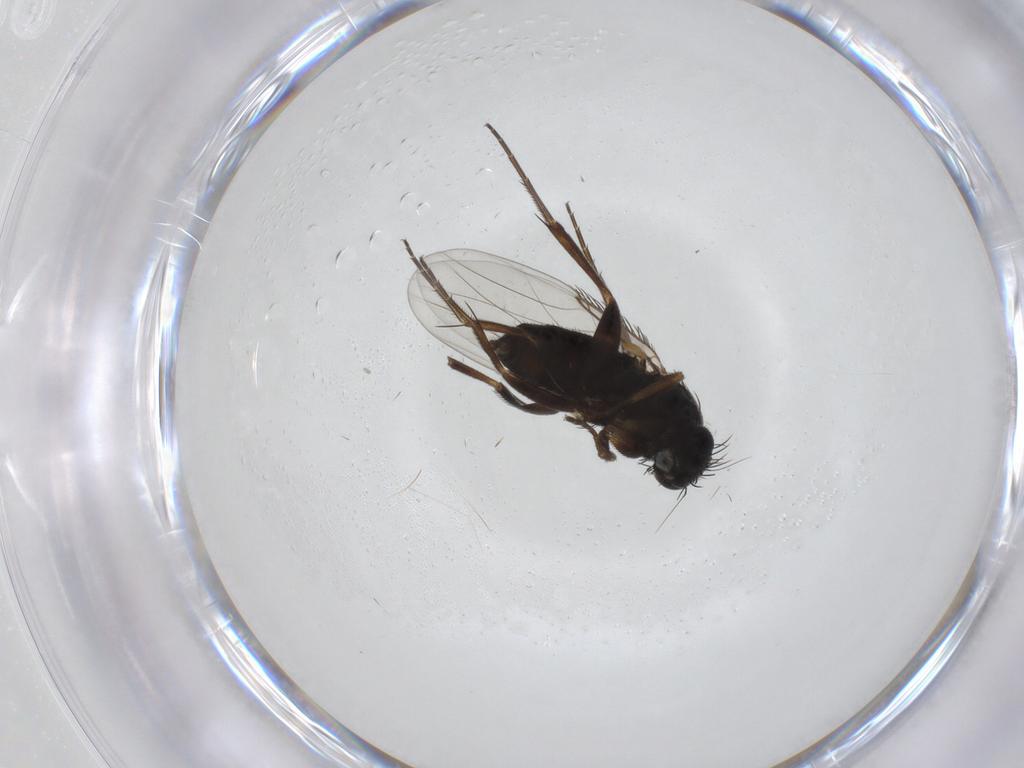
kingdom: Animalia
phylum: Arthropoda
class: Insecta
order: Diptera
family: Phoridae
